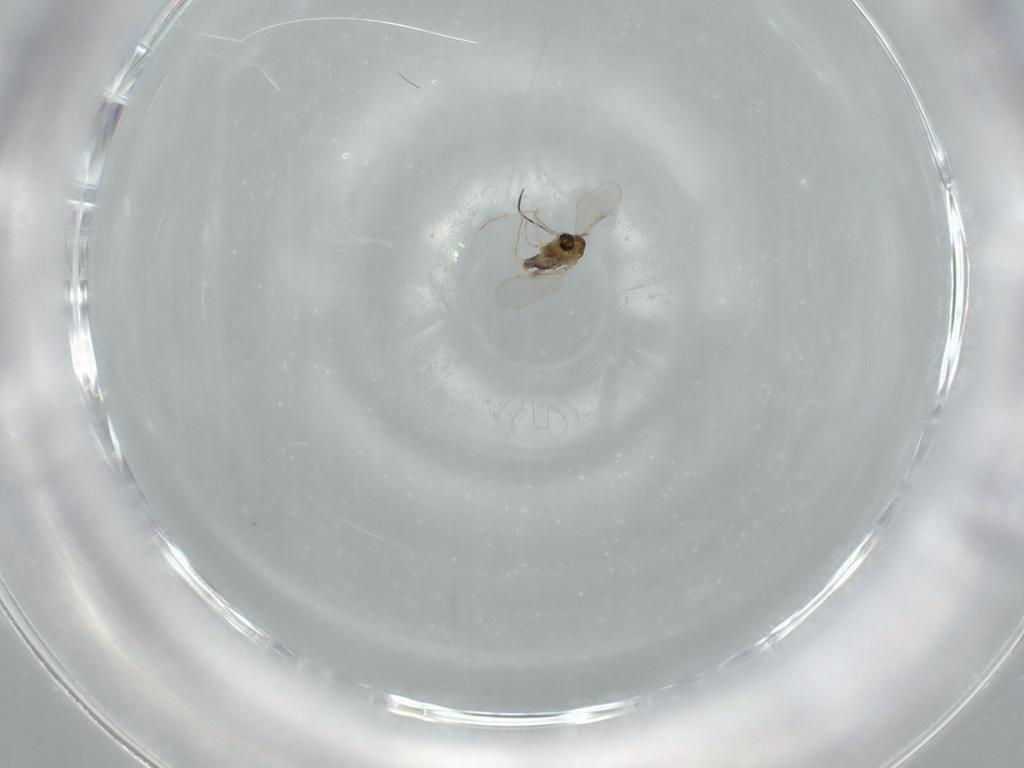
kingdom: Animalia
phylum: Arthropoda
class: Insecta
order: Diptera
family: Chironomidae
